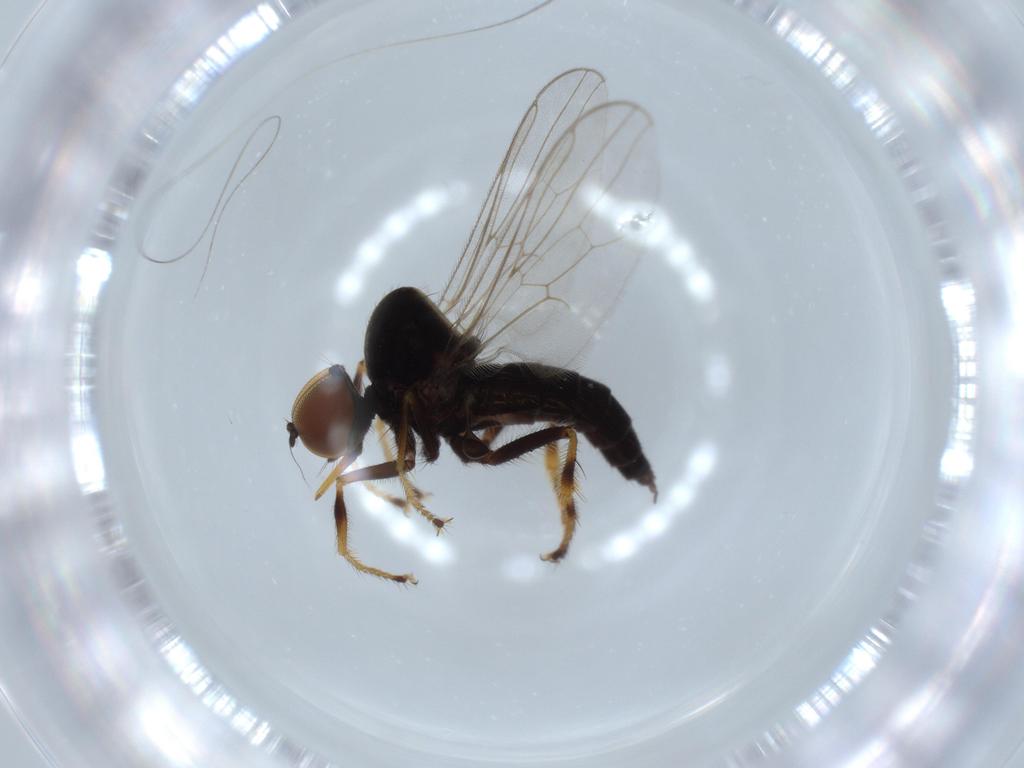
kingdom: Animalia
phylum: Arthropoda
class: Insecta
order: Diptera
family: Hybotidae
